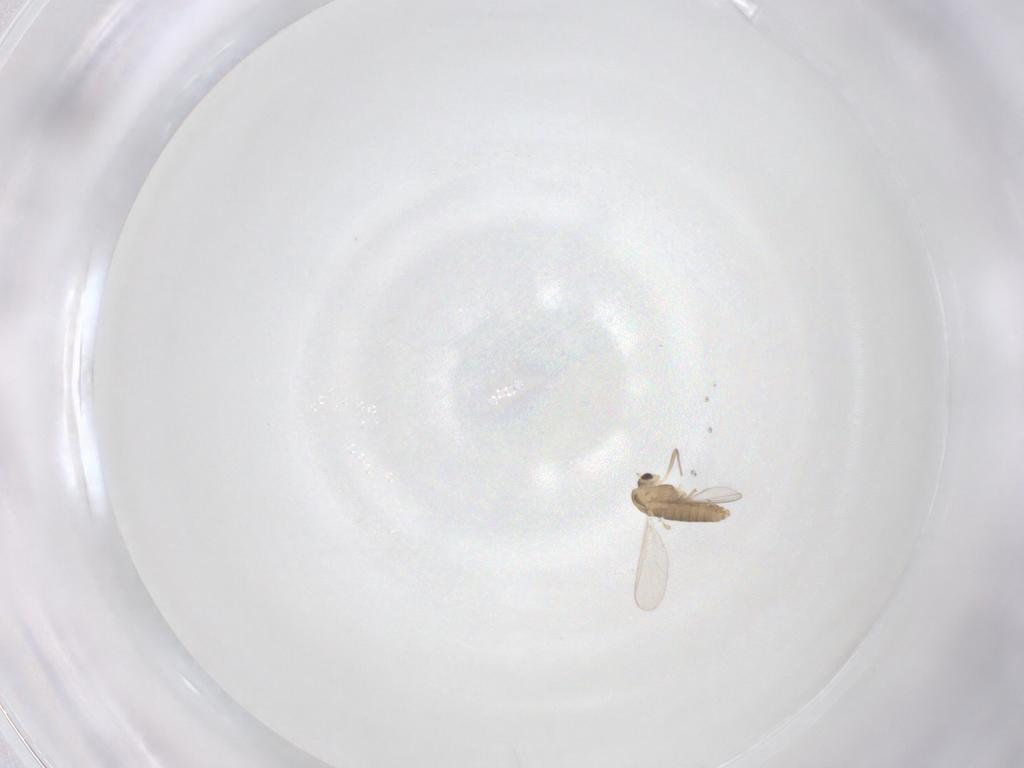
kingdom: Animalia
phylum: Arthropoda
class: Insecta
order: Diptera
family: Chironomidae
